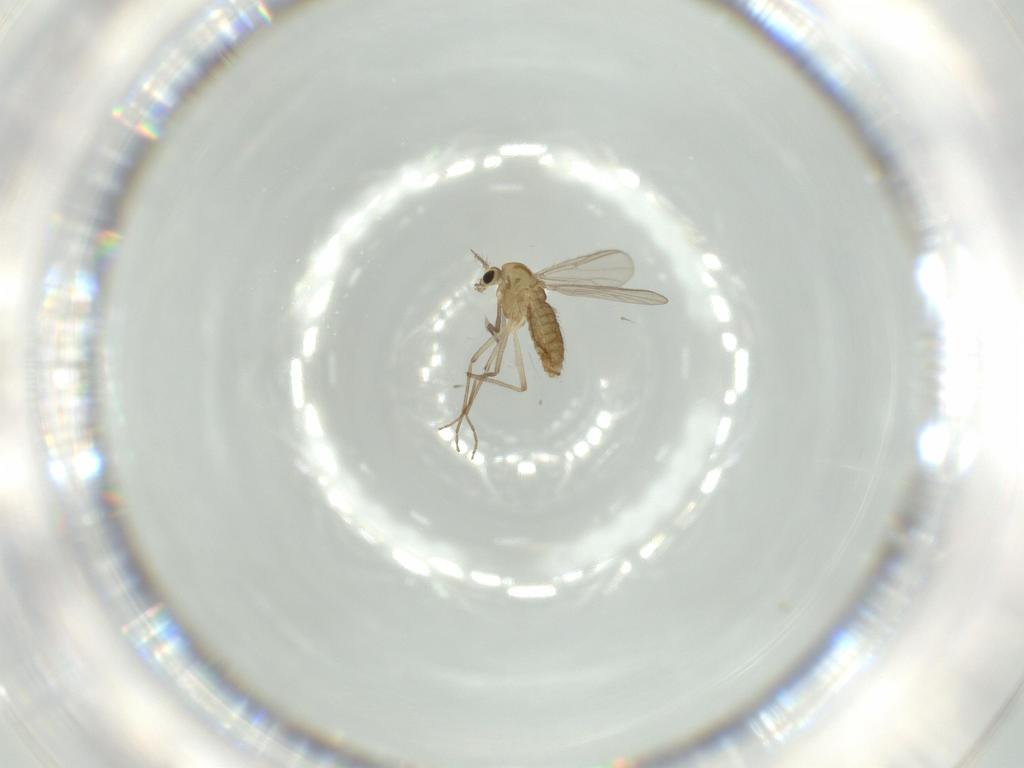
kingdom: Animalia
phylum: Arthropoda
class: Insecta
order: Diptera
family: Chironomidae
